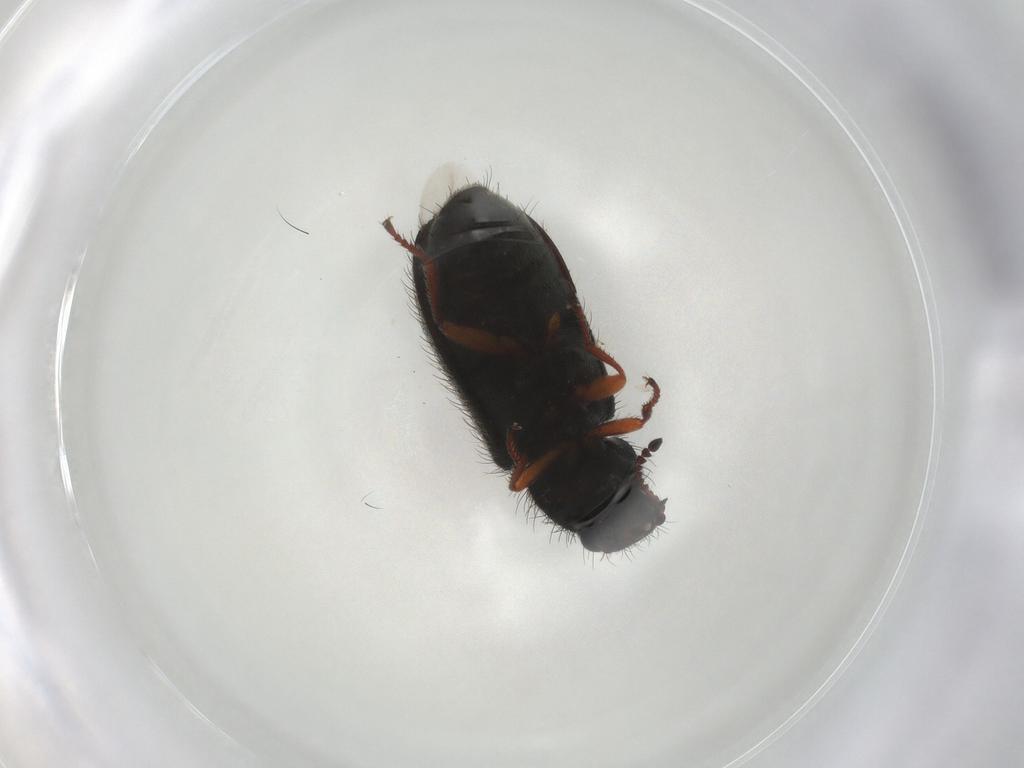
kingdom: Animalia
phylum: Arthropoda
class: Insecta
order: Coleoptera
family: Melyridae
